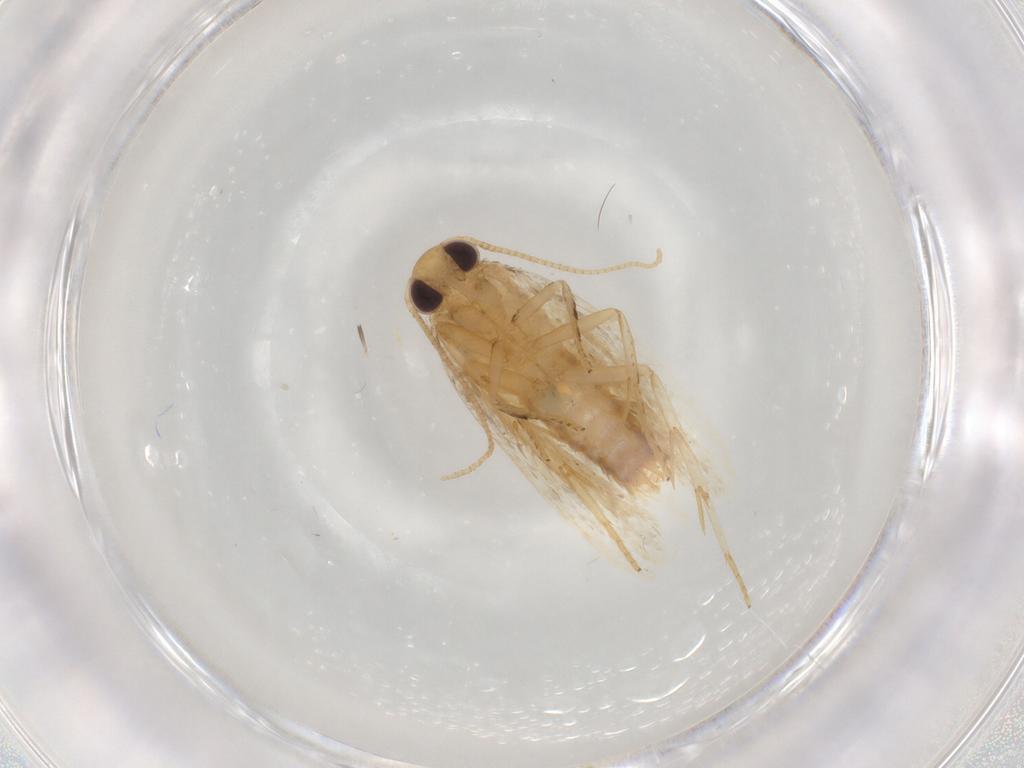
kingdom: Animalia
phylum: Arthropoda
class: Insecta
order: Lepidoptera
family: Depressariidae
